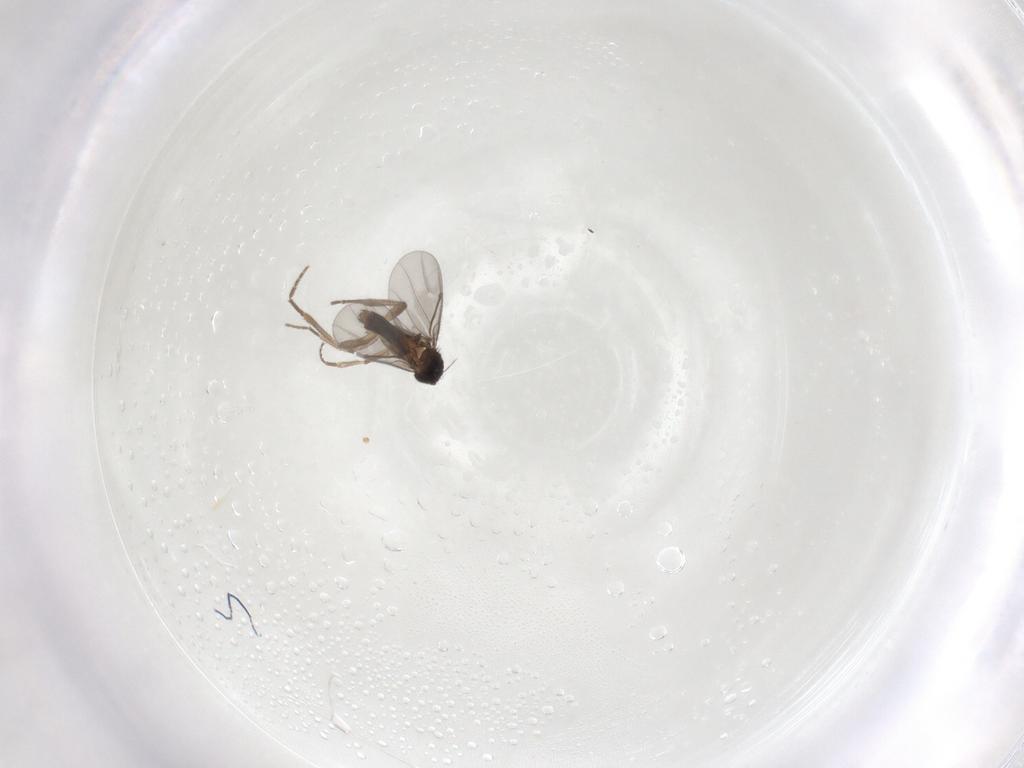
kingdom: Animalia
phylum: Arthropoda
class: Insecta
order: Diptera
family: Phoridae
